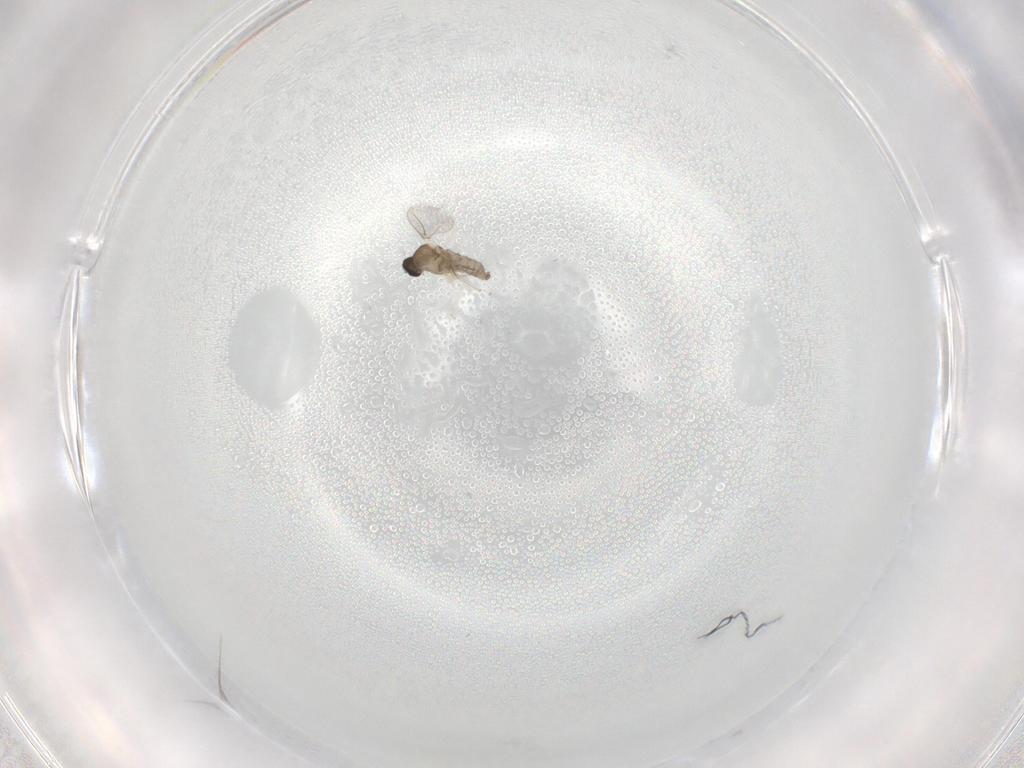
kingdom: Animalia
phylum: Arthropoda
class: Insecta
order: Diptera
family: Cecidomyiidae
